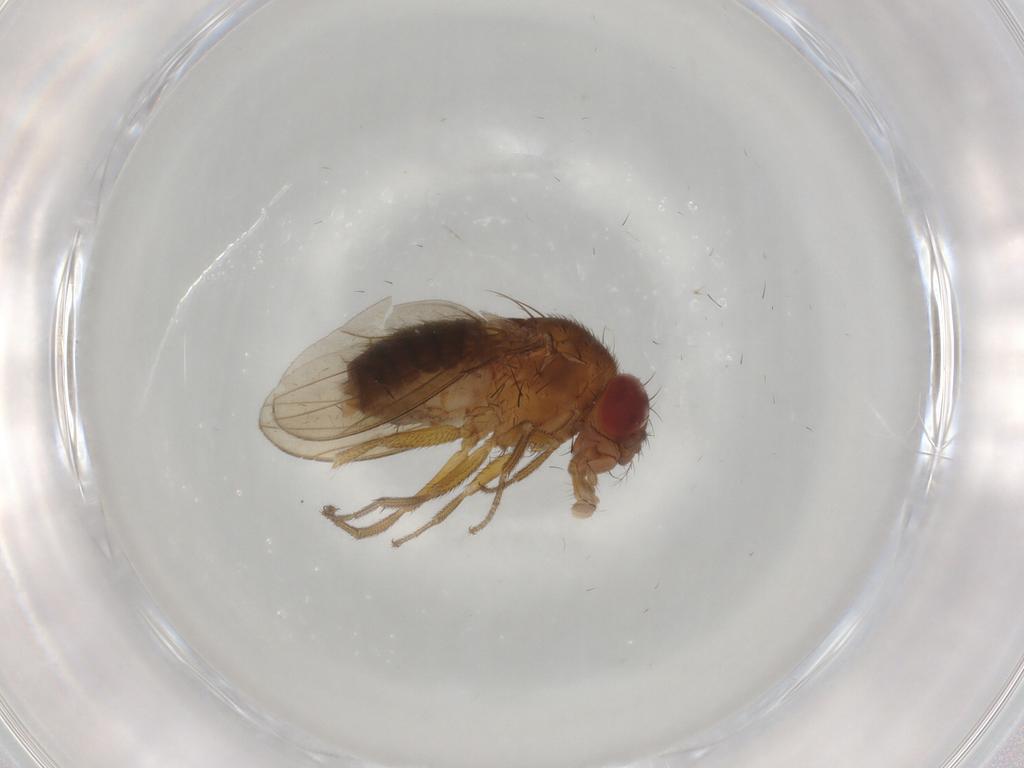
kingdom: Animalia
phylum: Arthropoda
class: Insecta
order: Diptera
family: Drosophilidae
